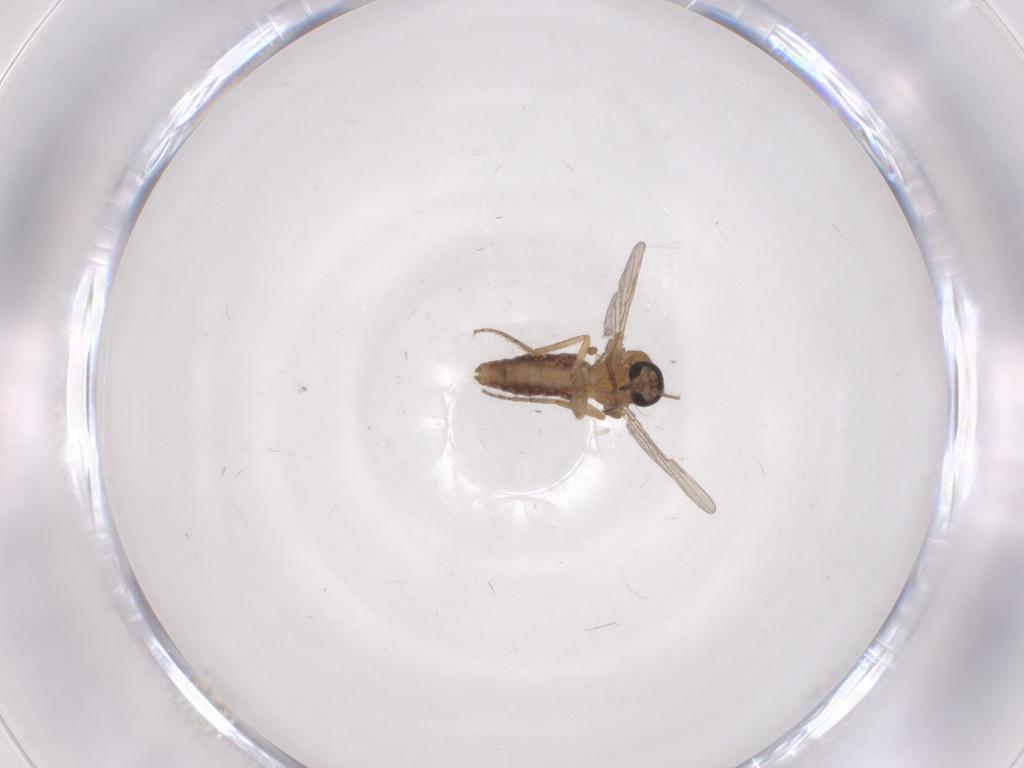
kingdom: Animalia
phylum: Arthropoda
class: Insecta
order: Diptera
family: Ceratopogonidae
